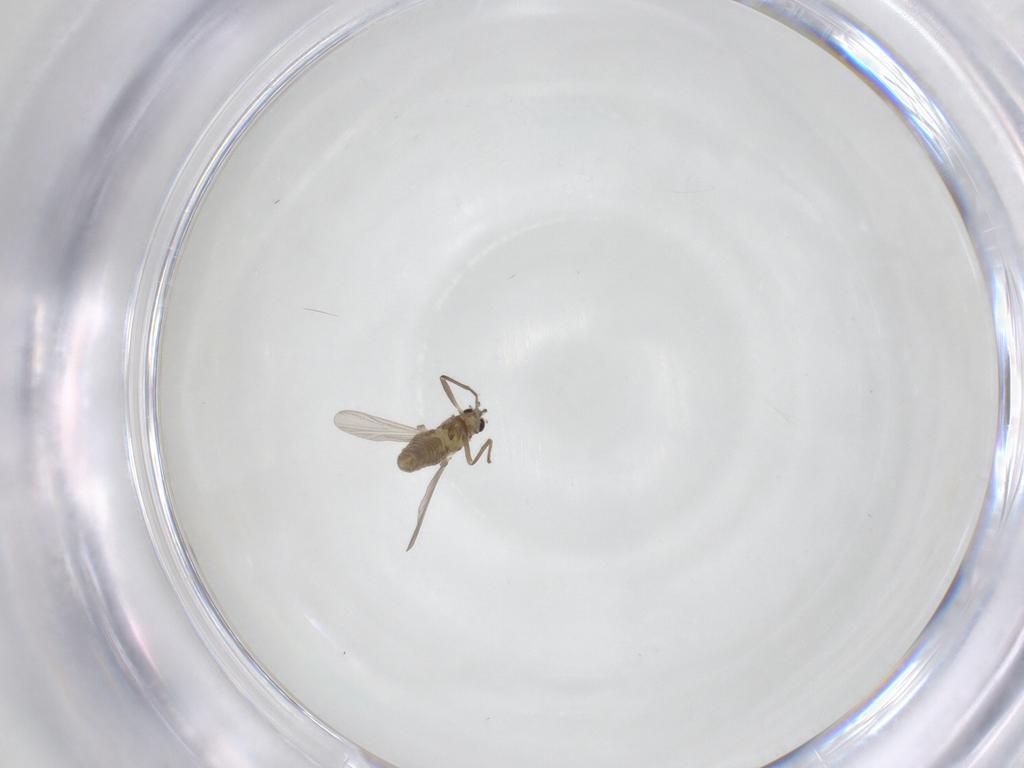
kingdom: Animalia
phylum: Arthropoda
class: Insecta
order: Diptera
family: Chironomidae
